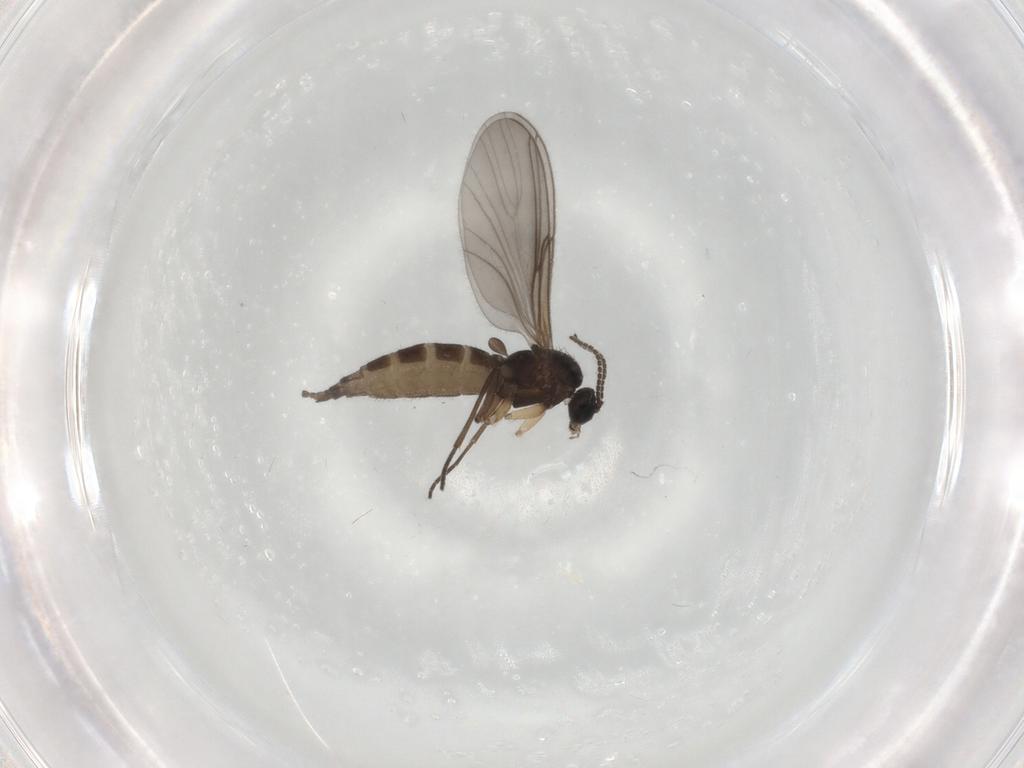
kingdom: Animalia
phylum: Arthropoda
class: Insecta
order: Diptera
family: Sciaridae
